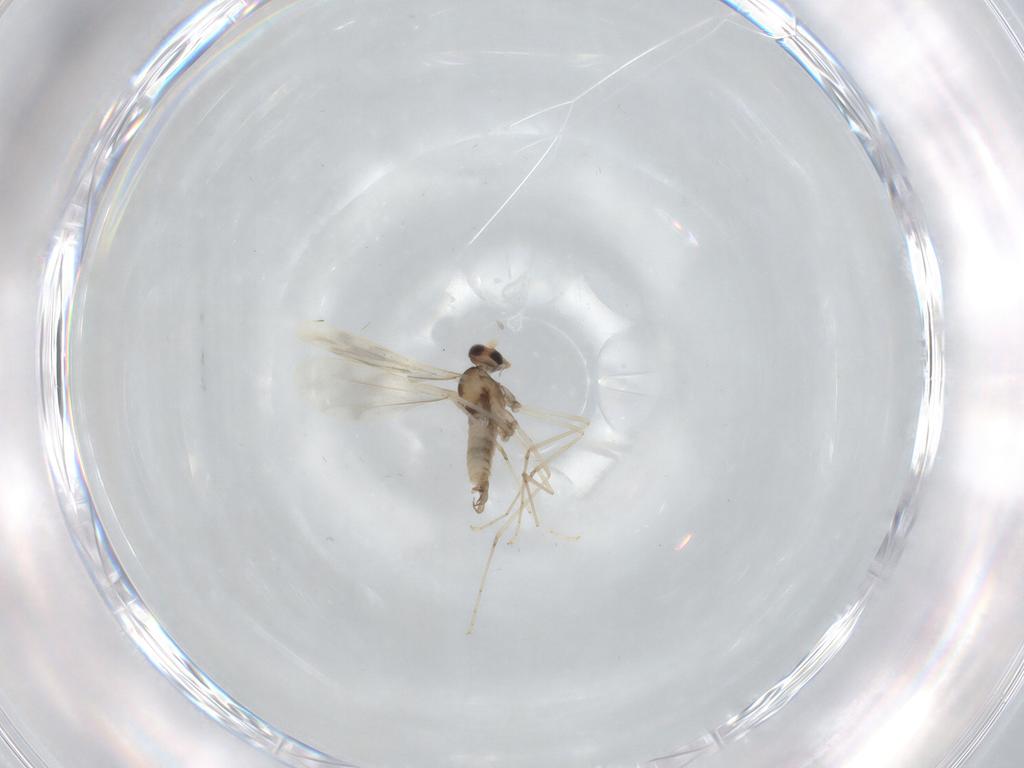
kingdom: Animalia
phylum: Arthropoda
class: Insecta
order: Diptera
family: Cecidomyiidae
